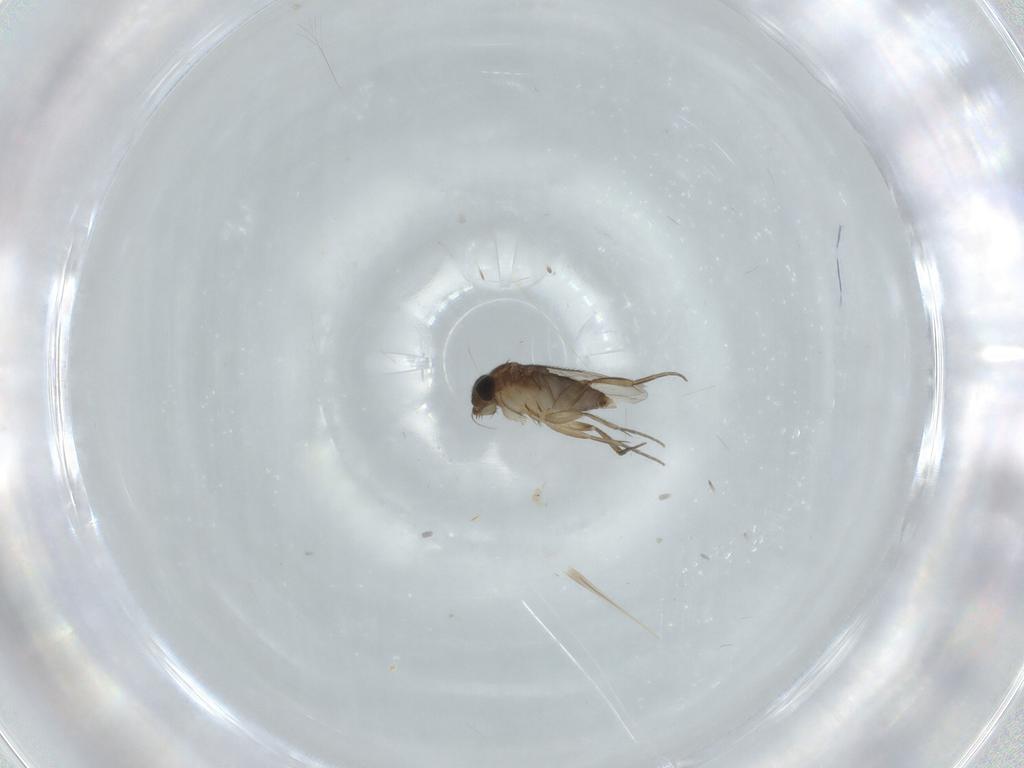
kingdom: Animalia
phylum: Arthropoda
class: Insecta
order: Diptera
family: Phoridae
